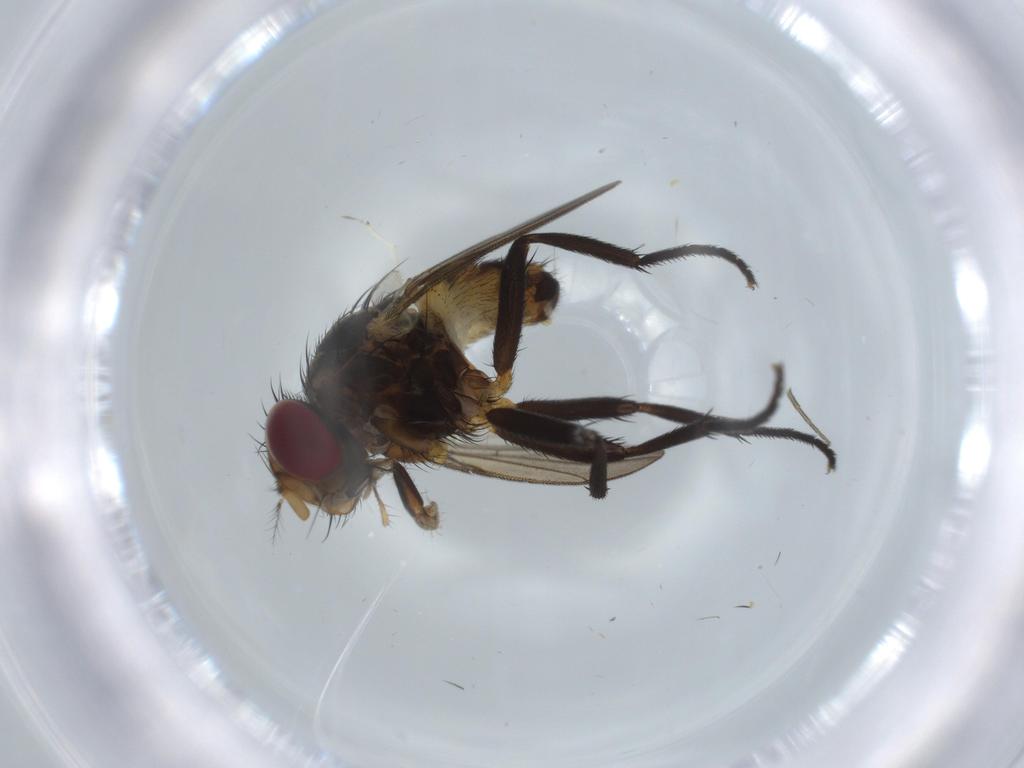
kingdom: Animalia
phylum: Arthropoda
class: Insecta
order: Diptera
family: Anthomyiidae
